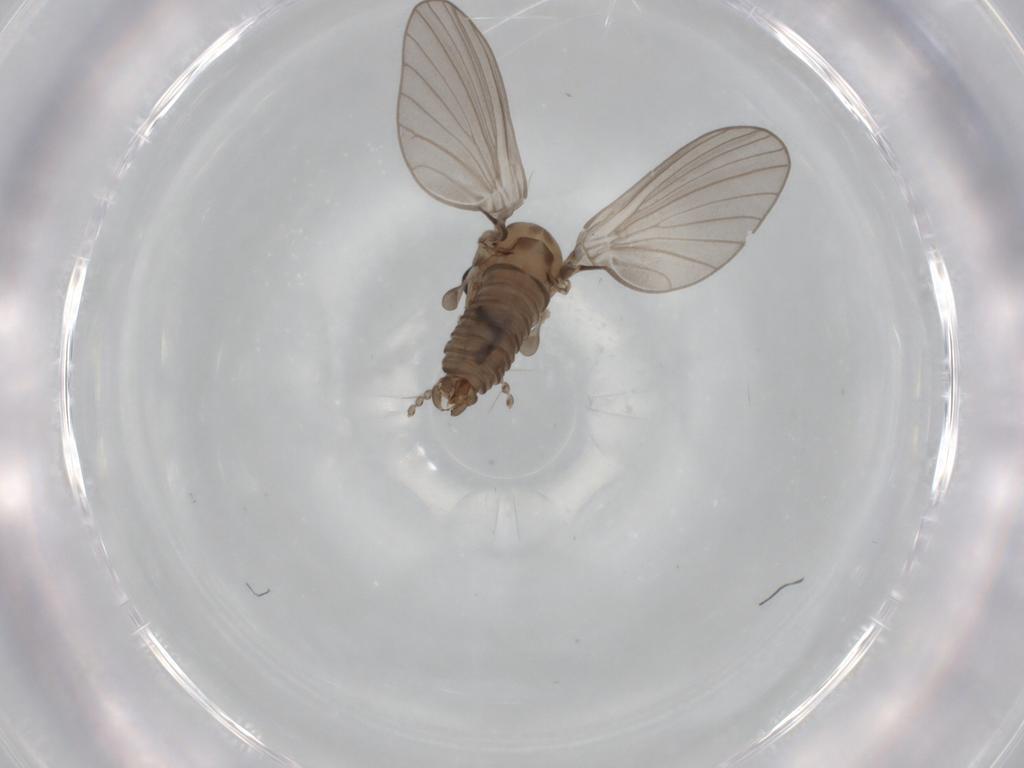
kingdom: Animalia
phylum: Arthropoda
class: Insecta
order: Diptera
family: Psychodidae
